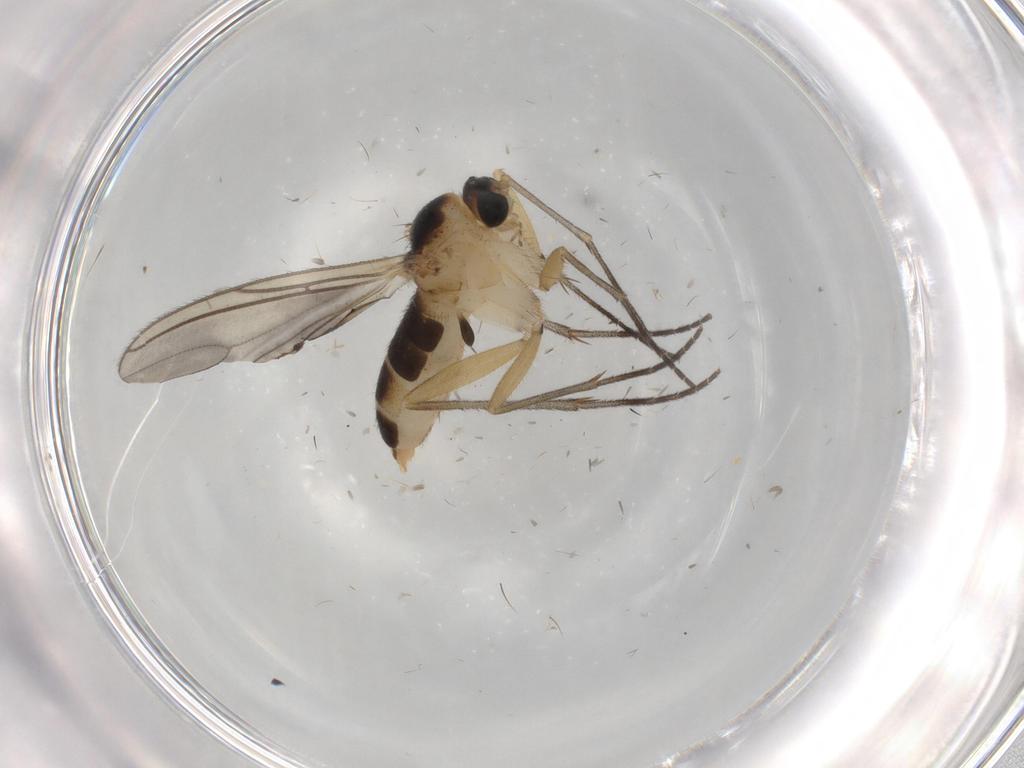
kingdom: Animalia
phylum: Arthropoda
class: Insecta
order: Diptera
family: Sciaridae
